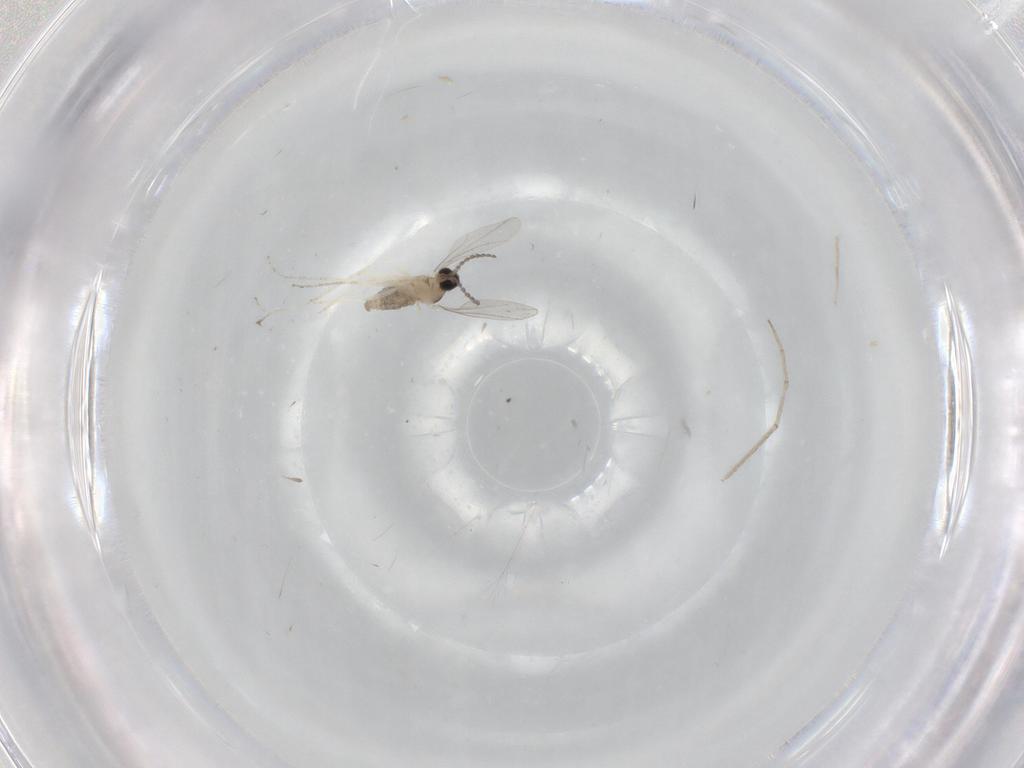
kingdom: Animalia
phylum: Arthropoda
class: Insecta
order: Diptera
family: Cecidomyiidae
